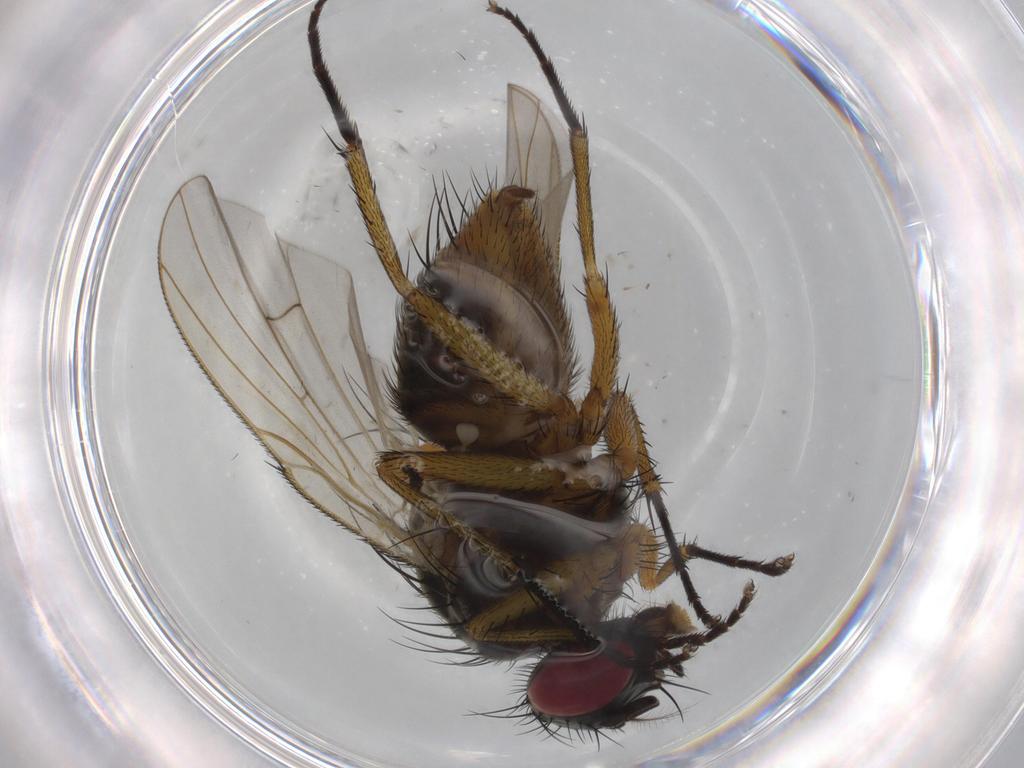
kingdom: Animalia
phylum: Arthropoda
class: Insecta
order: Diptera
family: Muscidae
